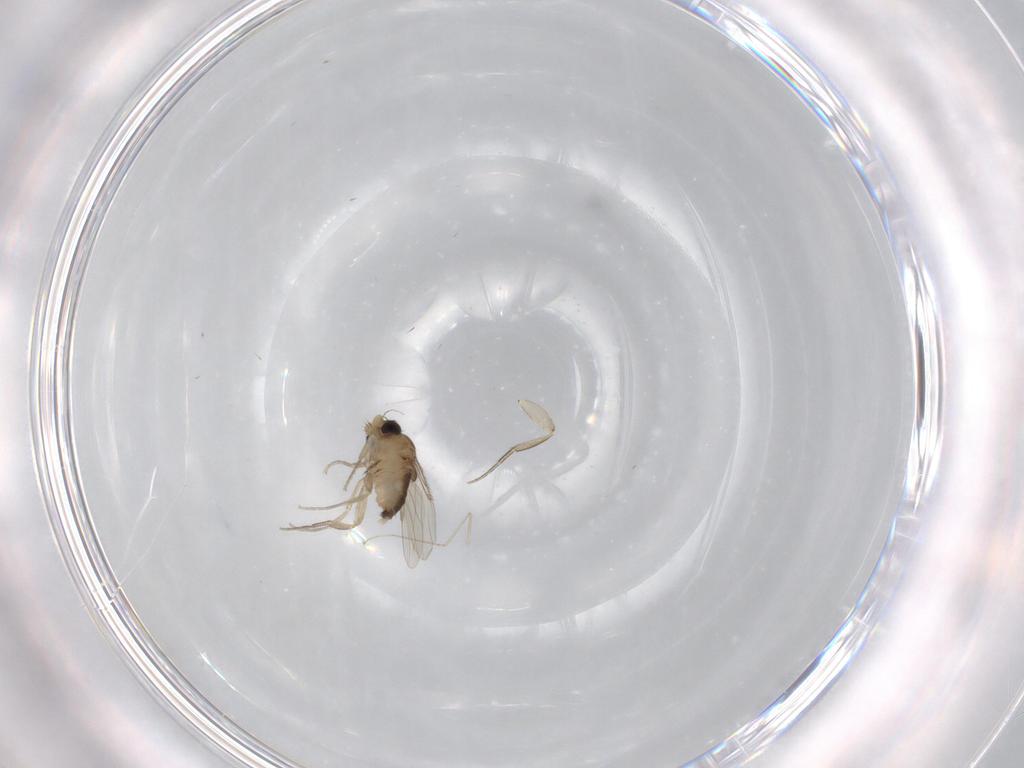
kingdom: Animalia
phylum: Arthropoda
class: Insecta
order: Diptera
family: Phoridae
